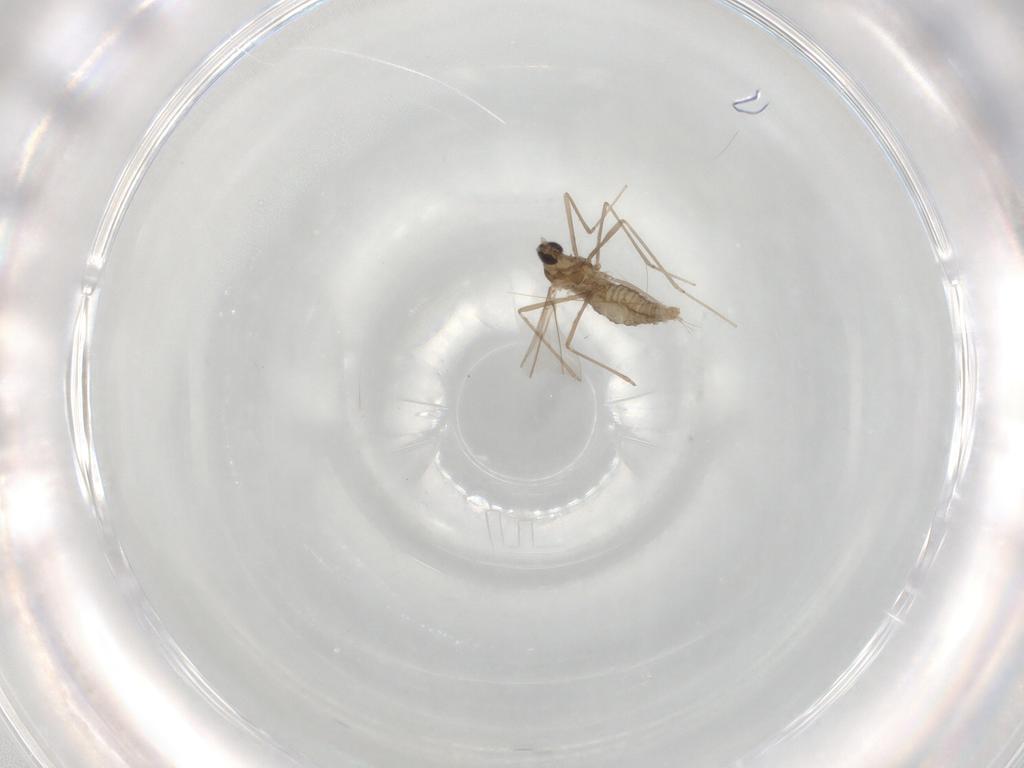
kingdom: Animalia
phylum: Arthropoda
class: Insecta
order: Diptera
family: Cecidomyiidae
